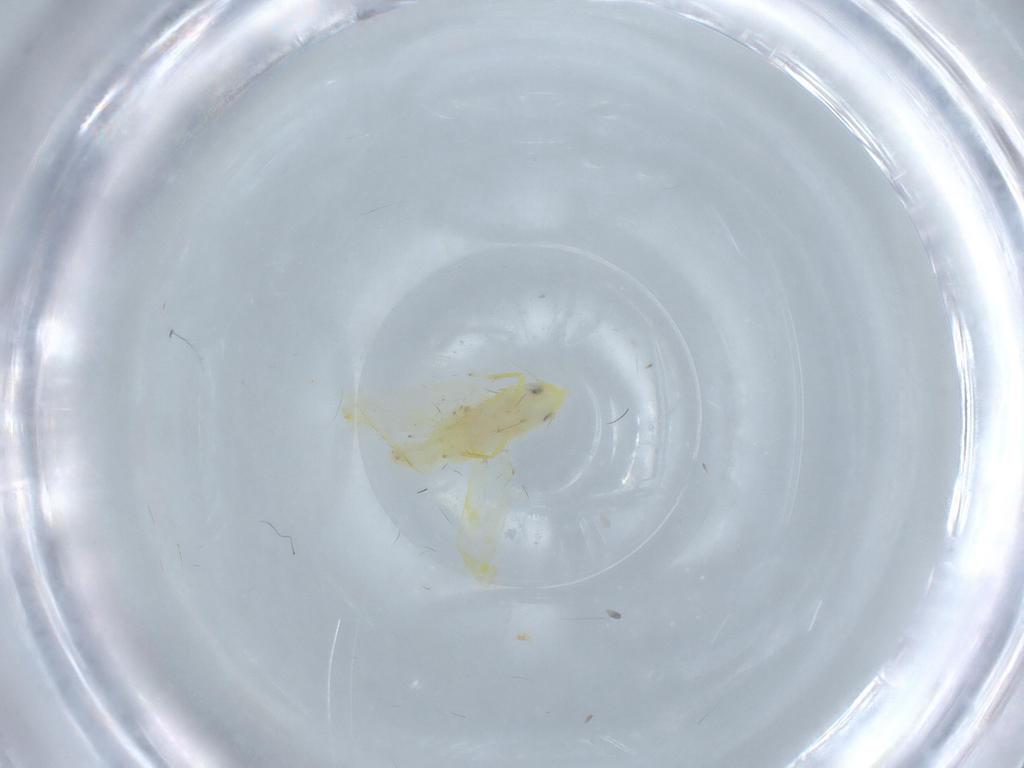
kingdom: Animalia
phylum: Arthropoda
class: Insecta
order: Hemiptera
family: Cicadellidae
